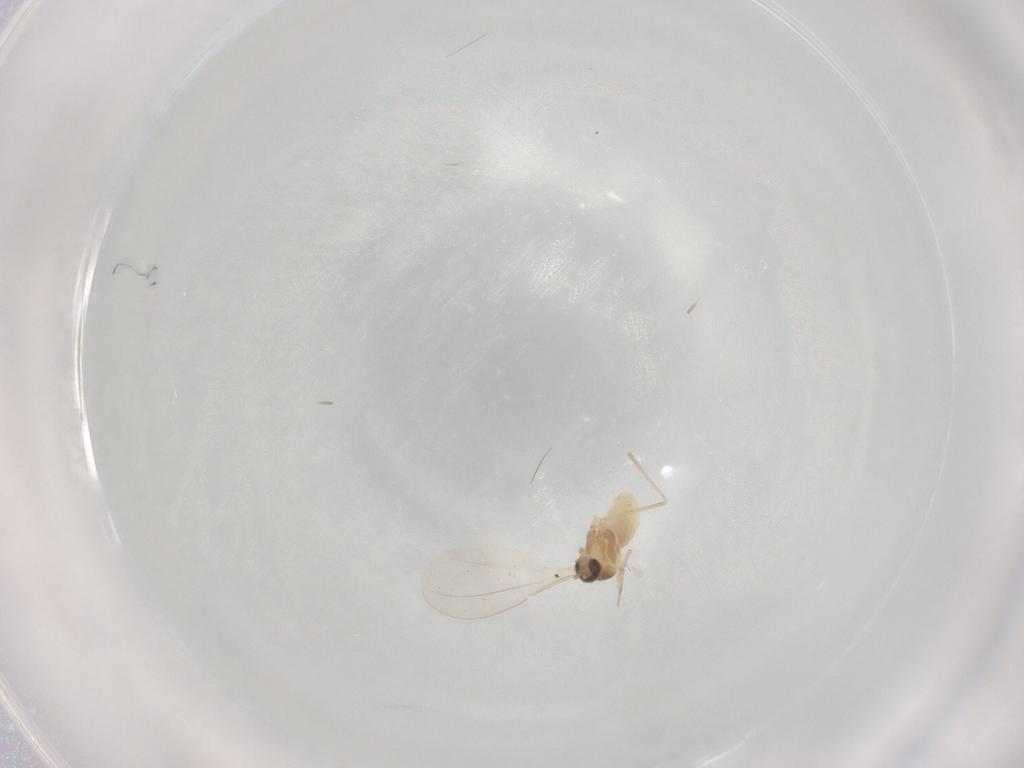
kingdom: Animalia
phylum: Arthropoda
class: Insecta
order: Diptera
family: Cecidomyiidae
